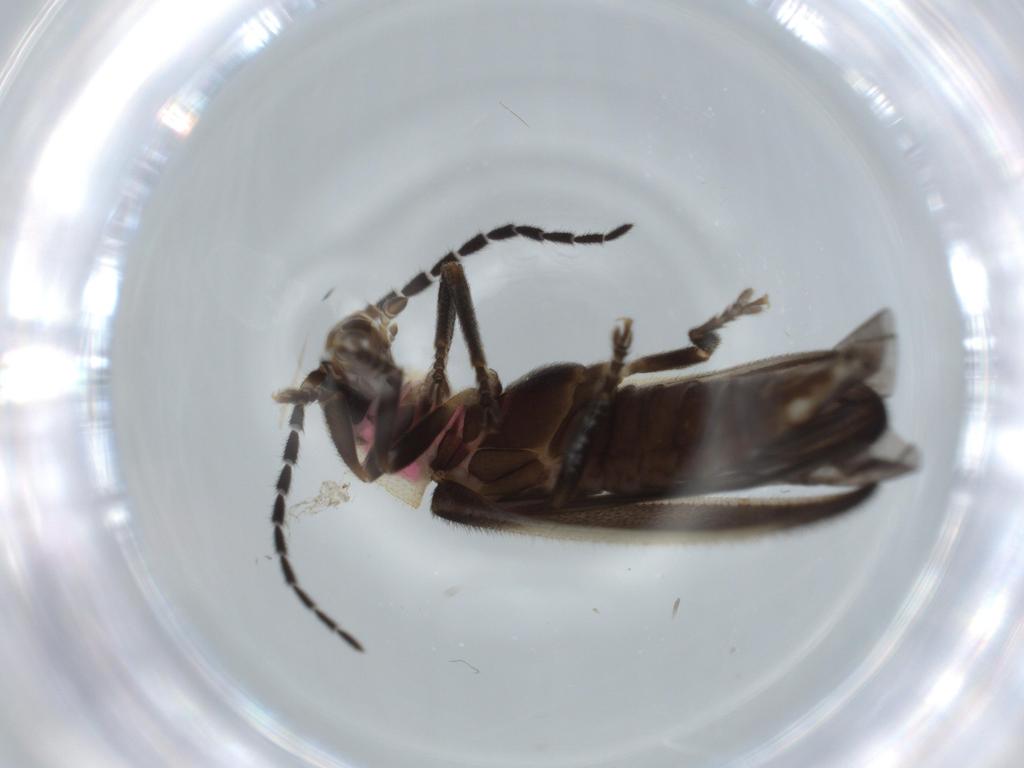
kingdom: Animalia
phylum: Arthropoda
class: Insecta
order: Coleoptera
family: Lampyridae
